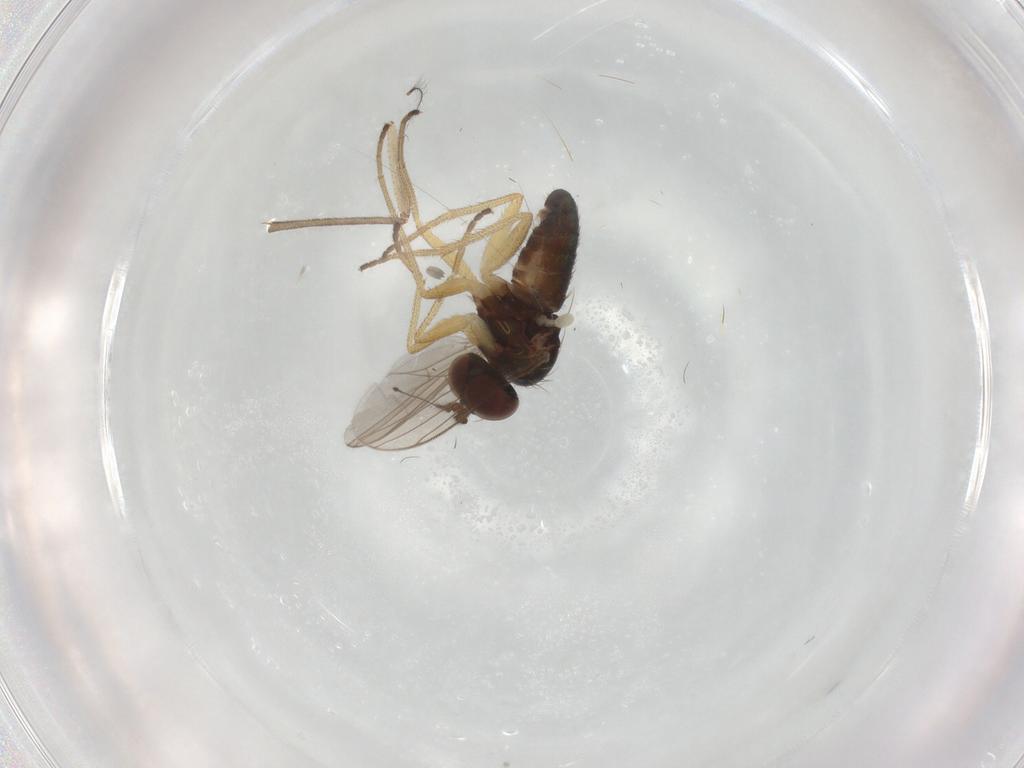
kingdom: Animalia
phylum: Arthropoda
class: Insecta
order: Diptera
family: Dolichopodidae
